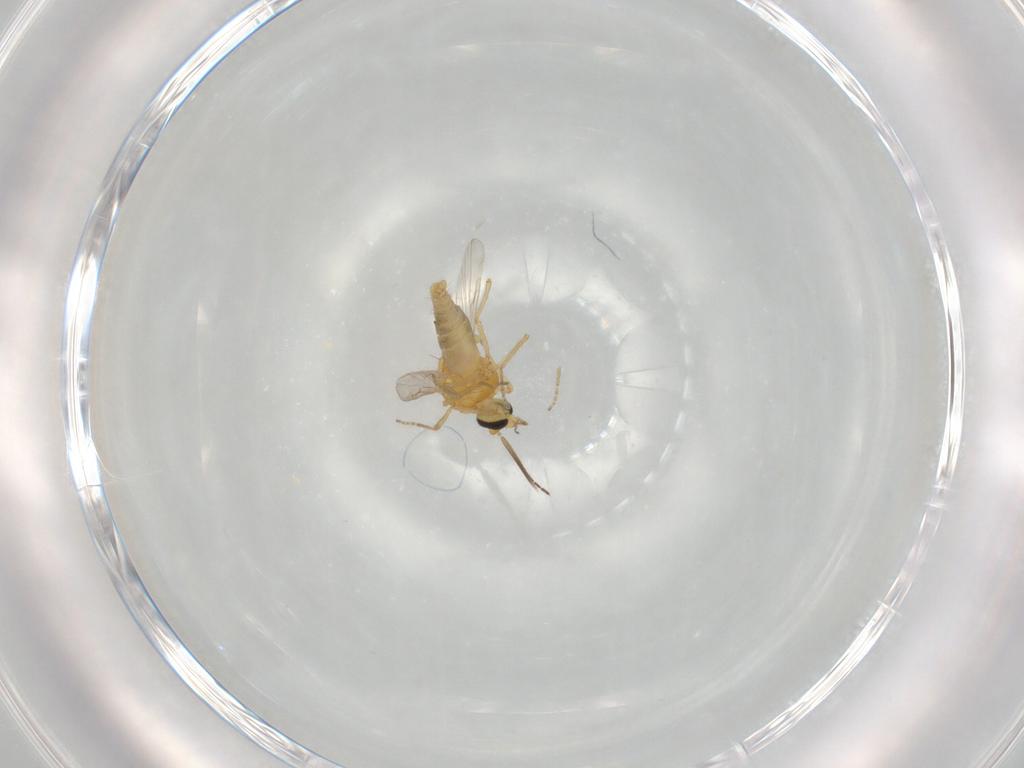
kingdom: Animalia
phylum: Arthropoda
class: Insecta
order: Diptera
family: Ceratopogonidae
